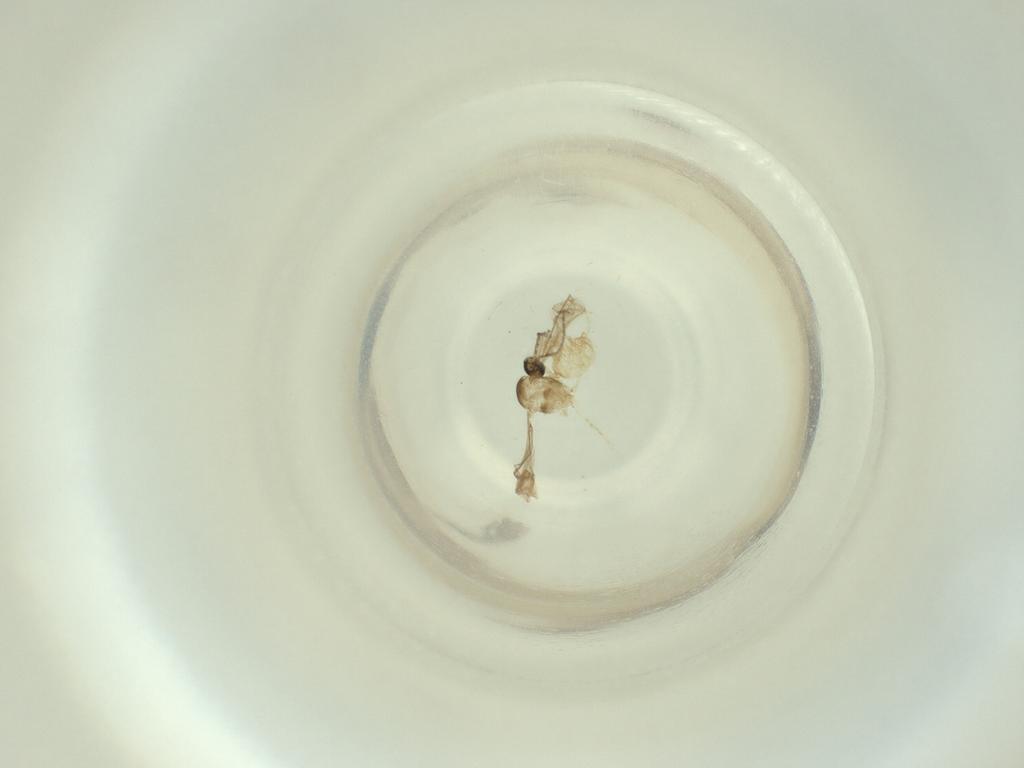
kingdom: Animalia
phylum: Arthropoda
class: Insecta
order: Diptera
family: Cecidomyiidae
